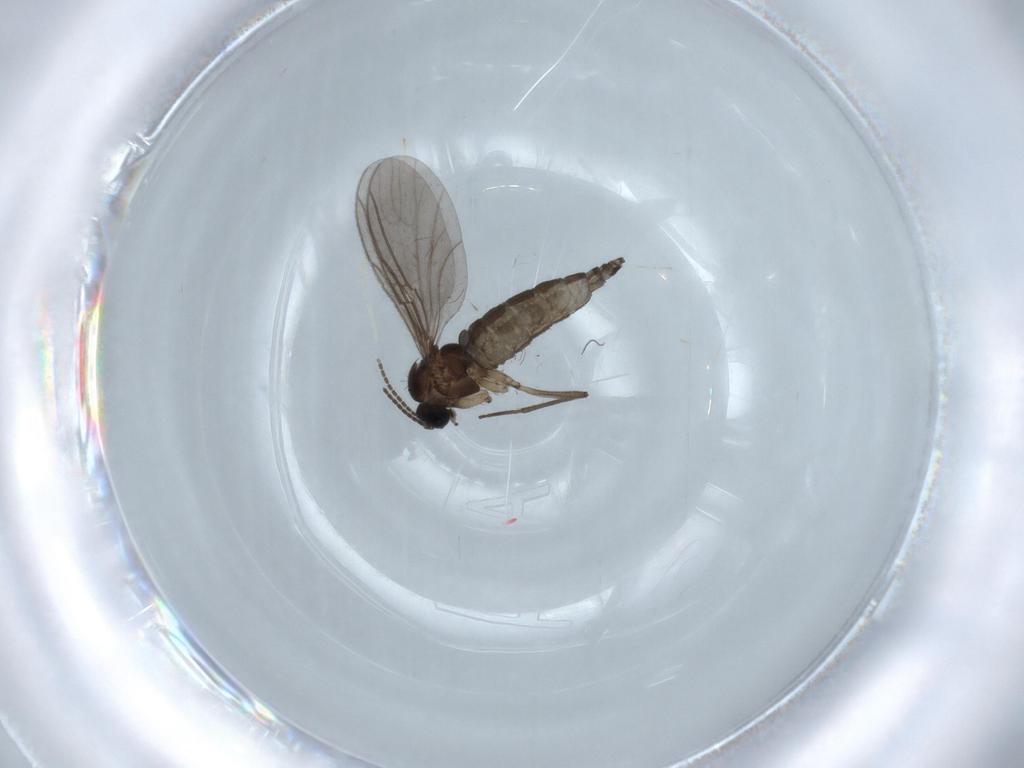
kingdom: Animalia
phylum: Arthropoda
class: Insecta
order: Diptera
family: Sciaridae
